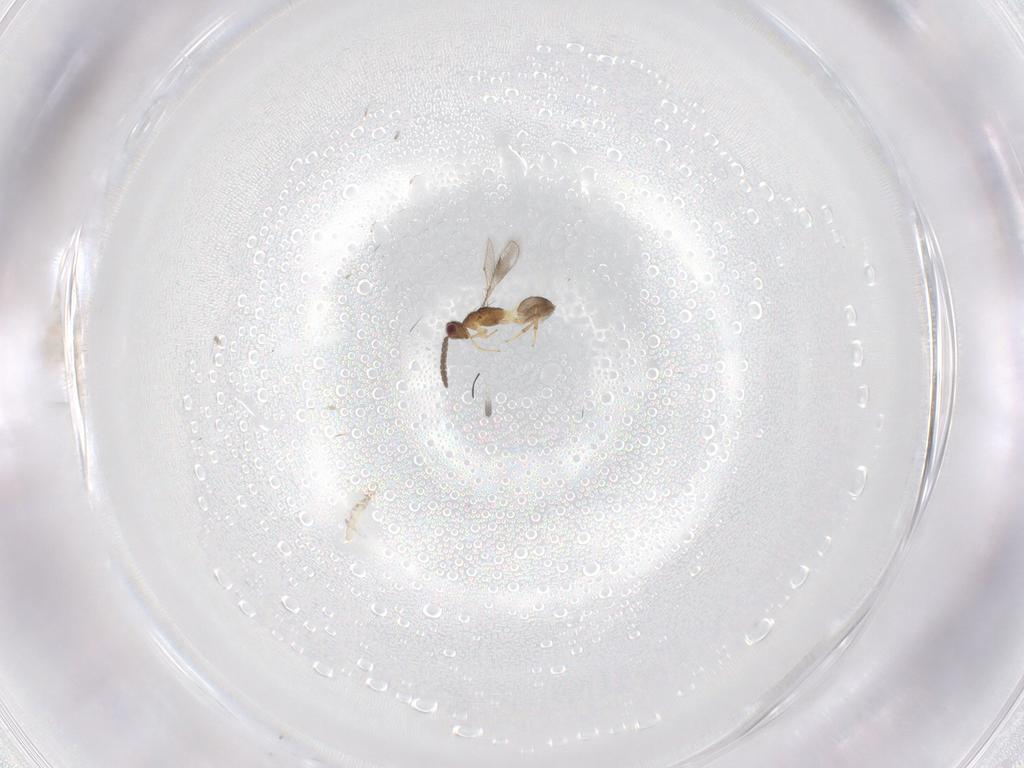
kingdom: Animalia
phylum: Arthropoda
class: Insecta
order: Hymenoptera
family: Pteromalidae
